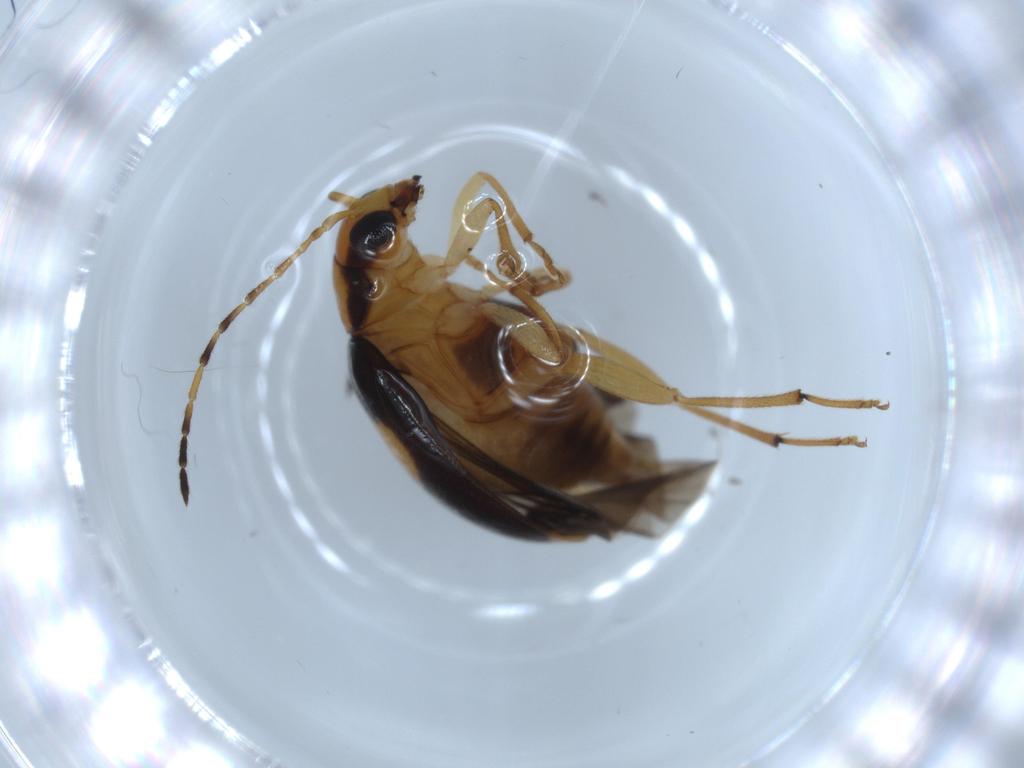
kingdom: Animalia
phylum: Arthropoda
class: Insecta
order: Coleoptera
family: Chrysomelidae
